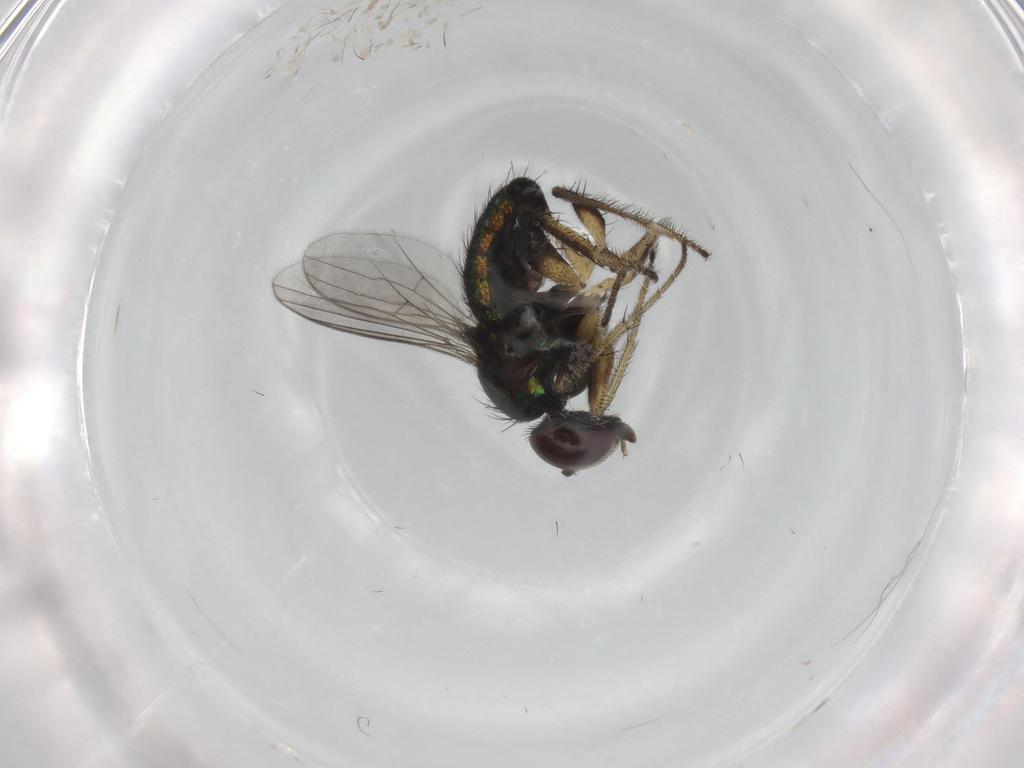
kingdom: Animalia
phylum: Arthropoda
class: Insecta
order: Diptera
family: Dolichopodidae
